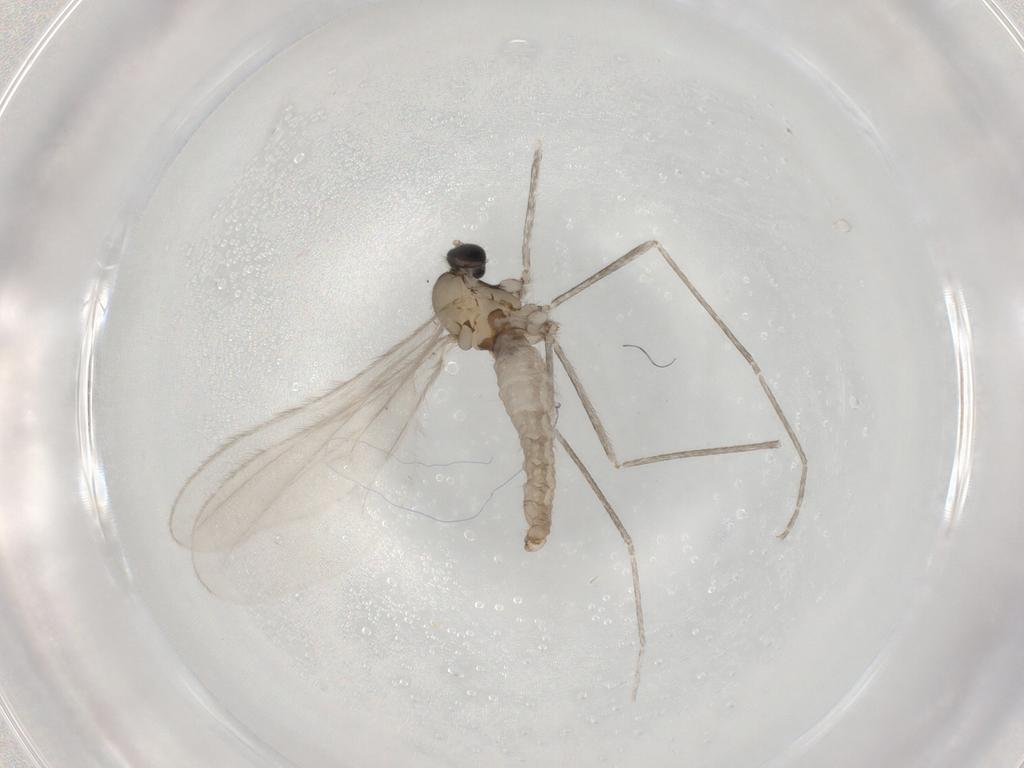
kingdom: Animalia
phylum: Arthropoda
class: Insecta
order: Diptera
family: Cecidomyiidae
